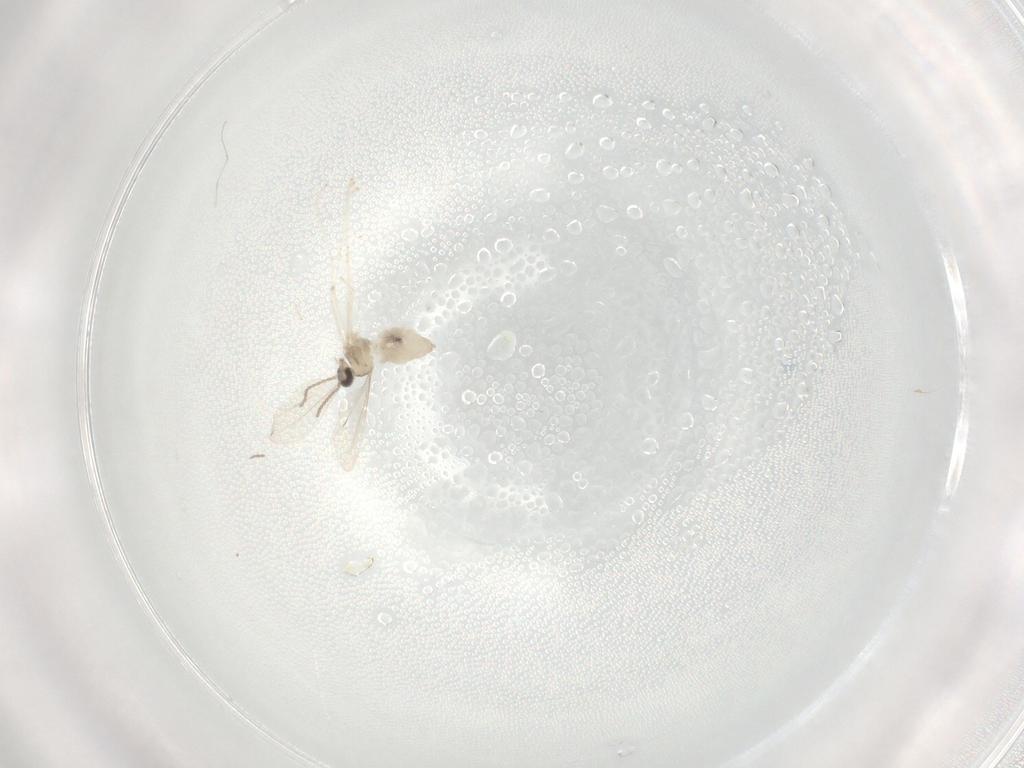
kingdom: Animalia
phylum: Arthropoda
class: Insecta
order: Diptera
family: Cecidomyiidae
